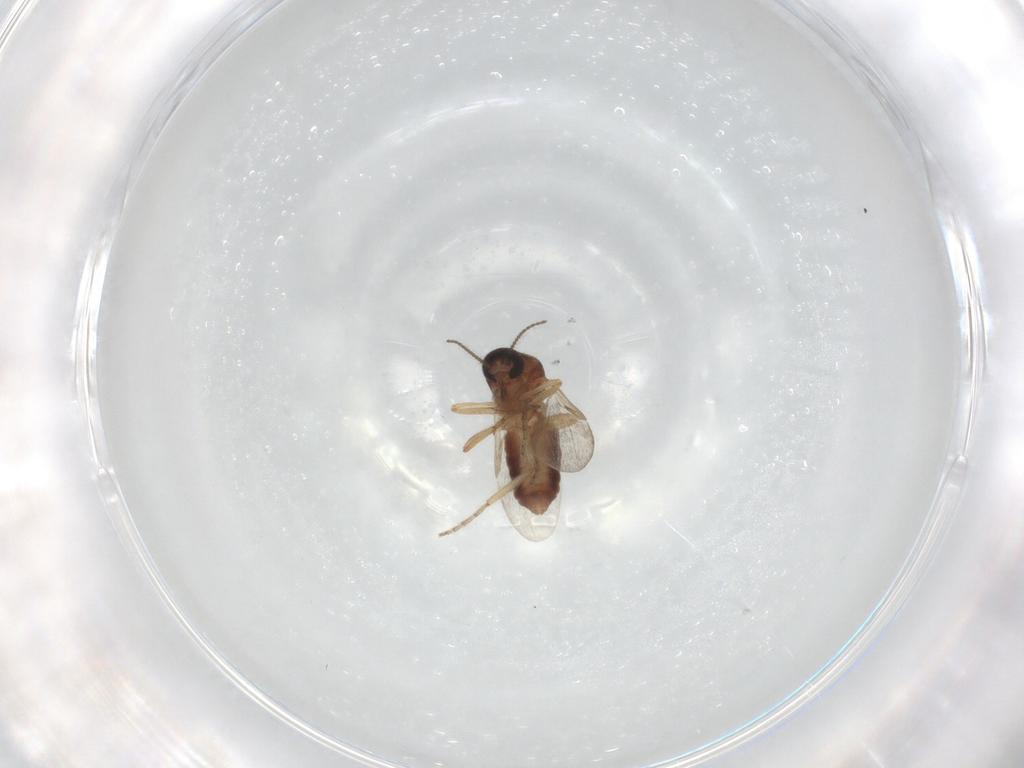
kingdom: Animalia
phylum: Arthropoda
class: Insecta
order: Diptera
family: Ceratopogonidae
